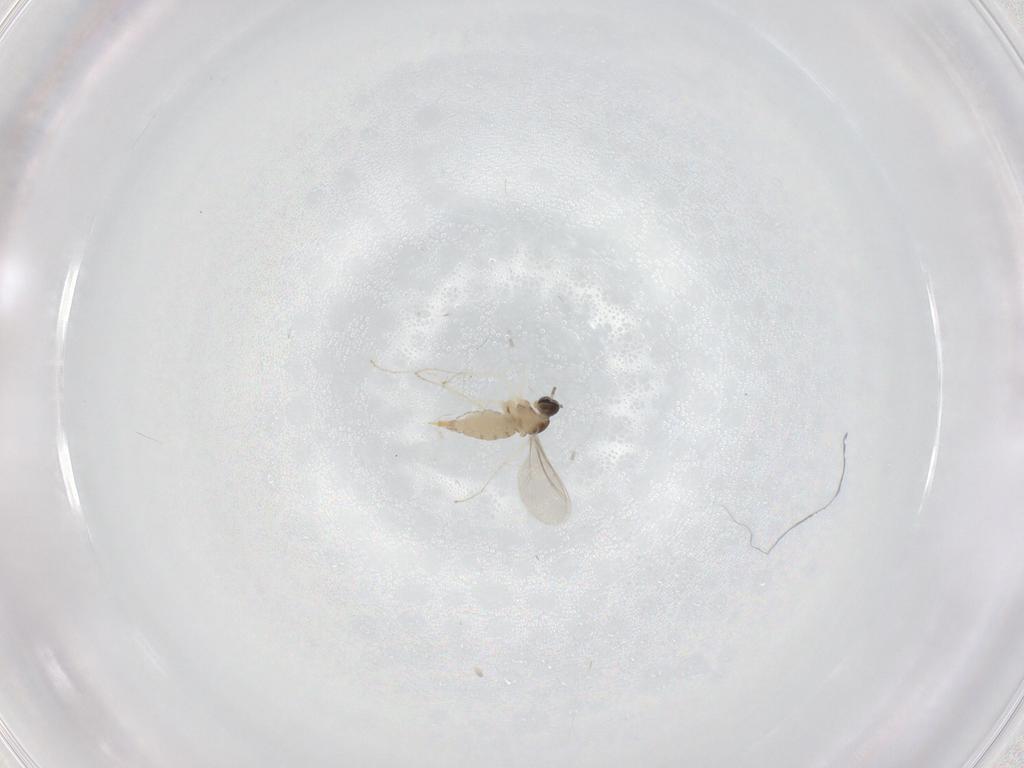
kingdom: Animalia
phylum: Arthropoda
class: Insecta
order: Diptera
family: Cecidomyiidae
